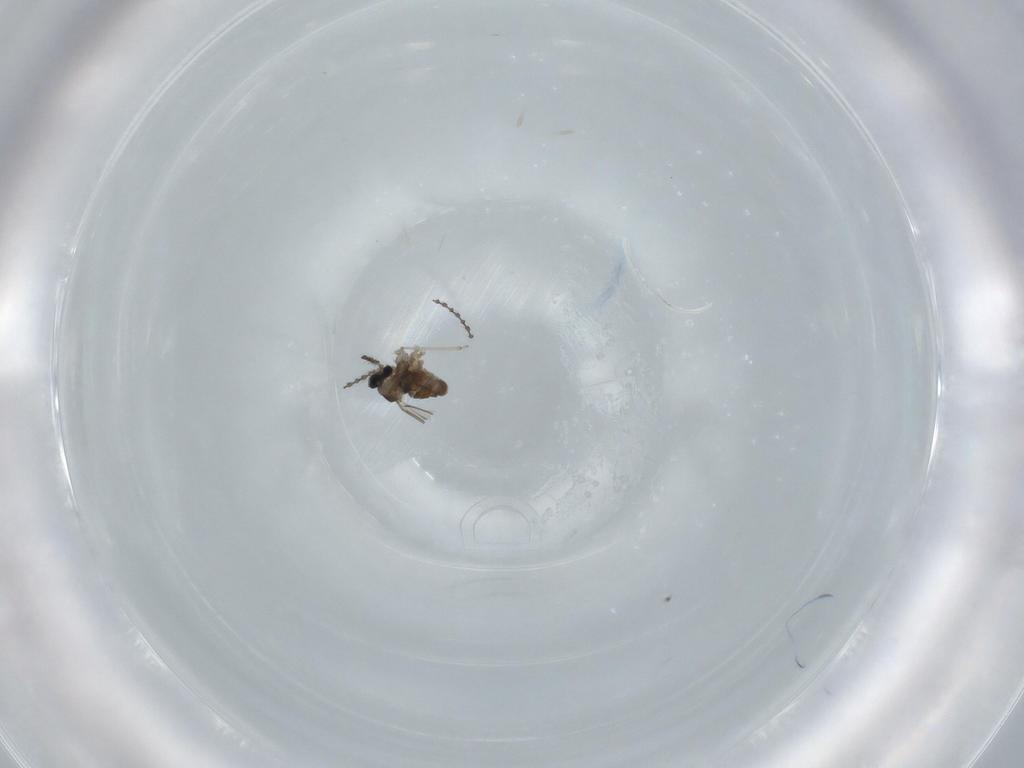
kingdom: Animalia
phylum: Arthropoda
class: Insecta
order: Diptera
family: Cecidomyiidae
